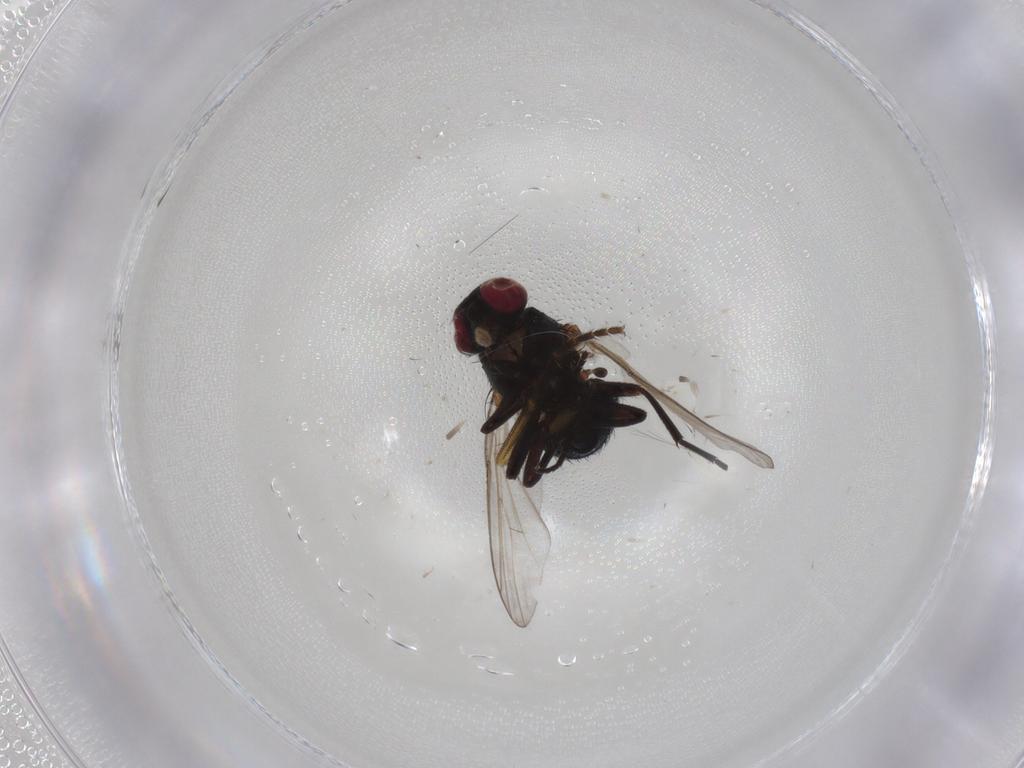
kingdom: Animalia
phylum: Arthropoda
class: Insecta
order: Diptera
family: Agromyzidae
